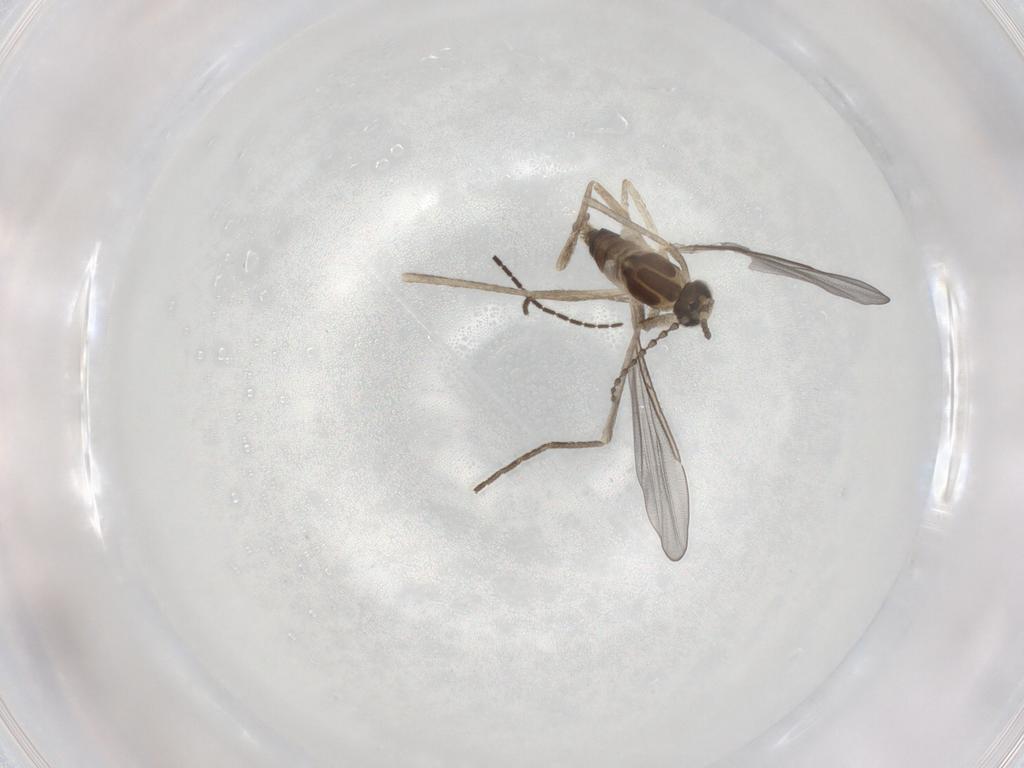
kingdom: Animalia
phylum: Arthropoda
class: Insecta
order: Diptera
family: Cecidomyiidae
